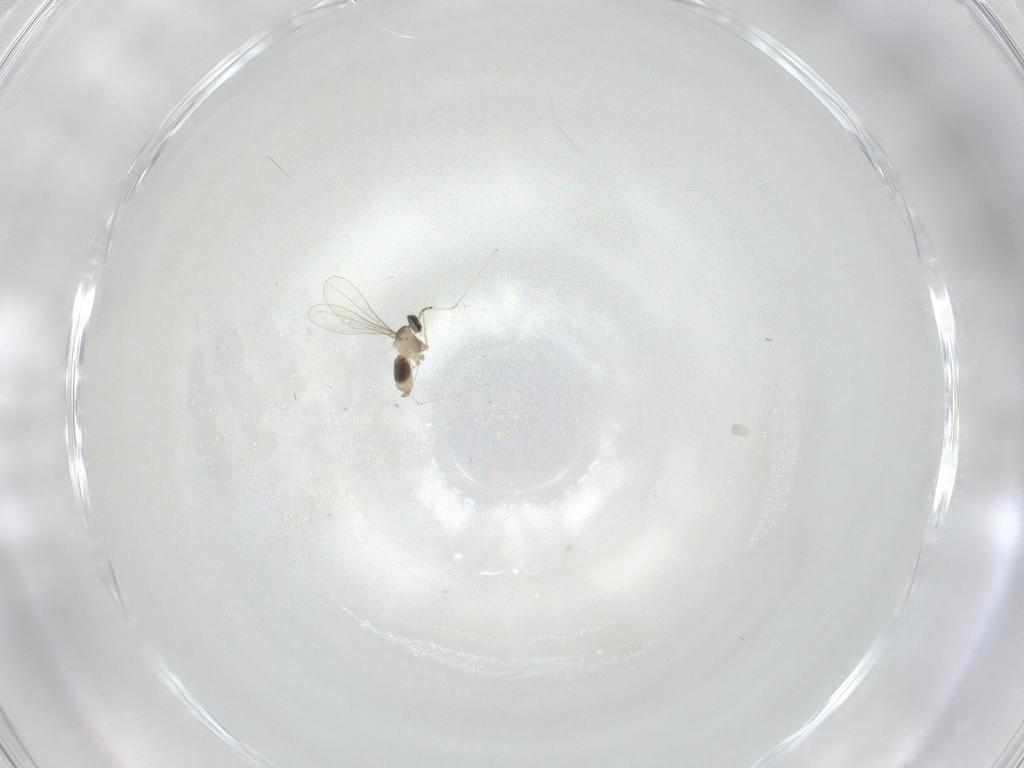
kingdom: Animalia
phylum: Arthropoda
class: Insecta
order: Diptera
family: Cecidomyiidae
